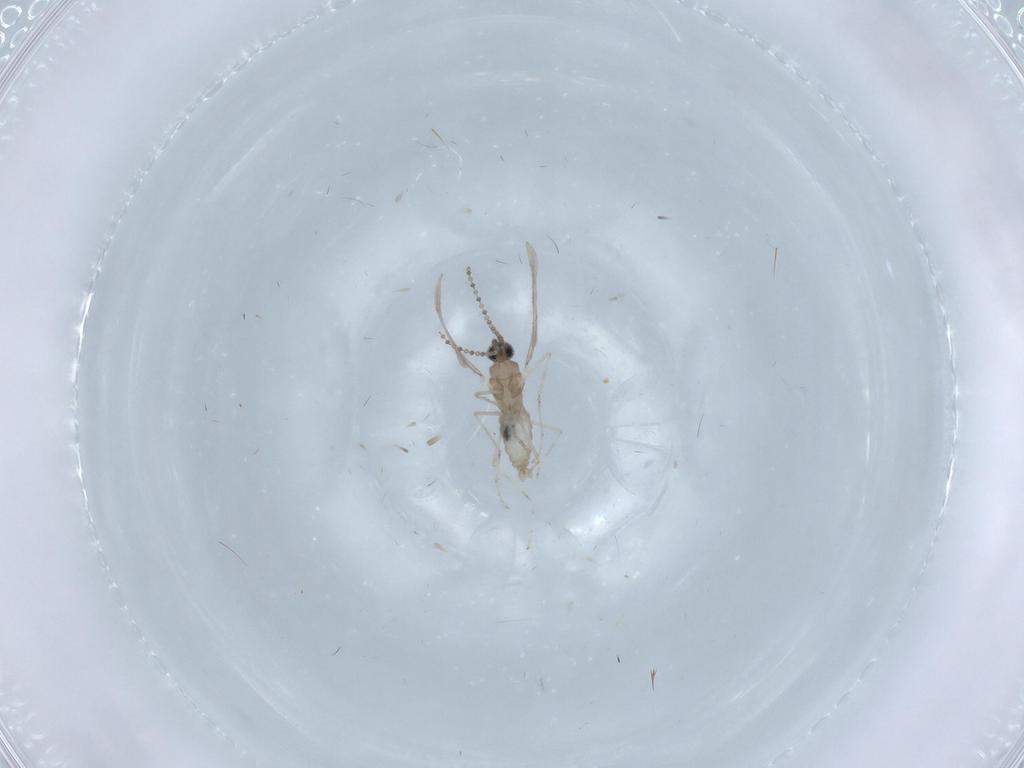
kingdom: Animalia
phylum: Arthropoda
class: Insecta
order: Diptera
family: Cecidomyiidae
